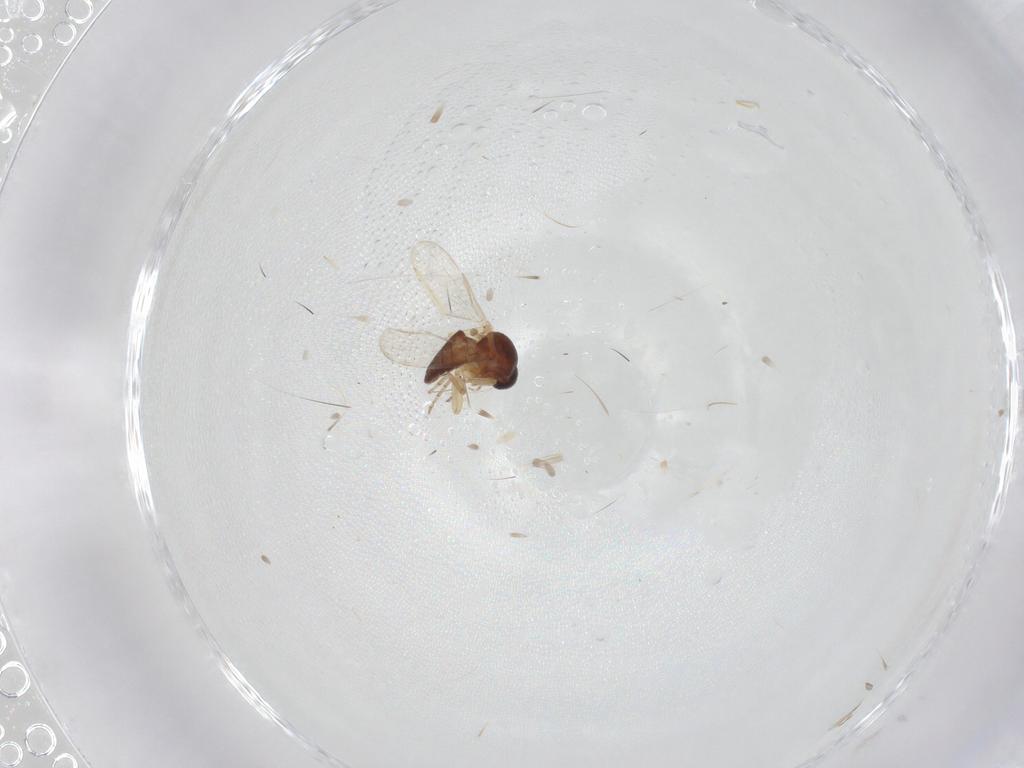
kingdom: Animalia
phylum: Arthropoda
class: Insecta
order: Diptera
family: Ceratopogonidae
